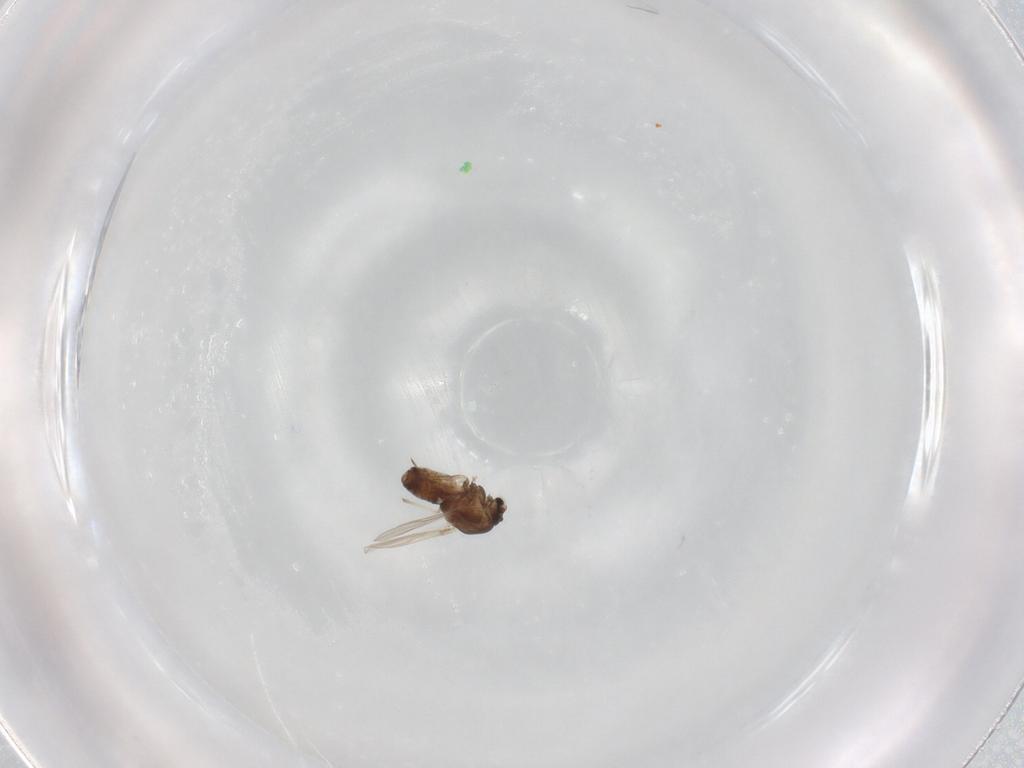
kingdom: Animalia
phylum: Arthropoda
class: Insecta
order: Diptera
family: Chironomidae
